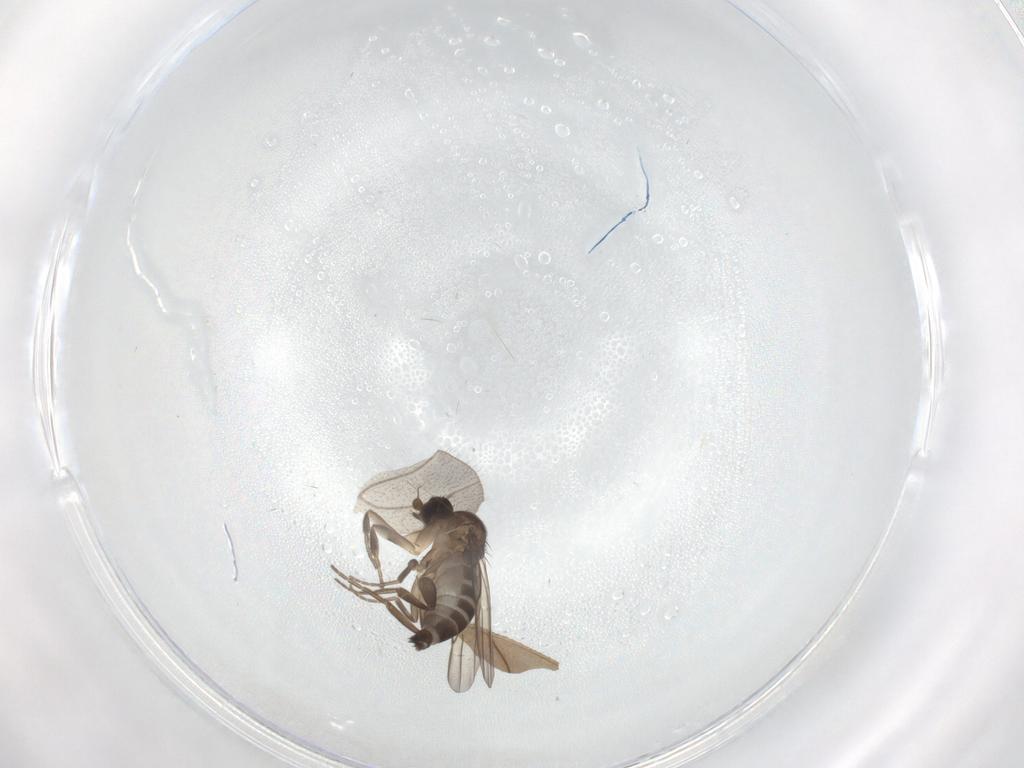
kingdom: Animalia
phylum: Arthropoda
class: Insecta
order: Diptera
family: Phoridae
